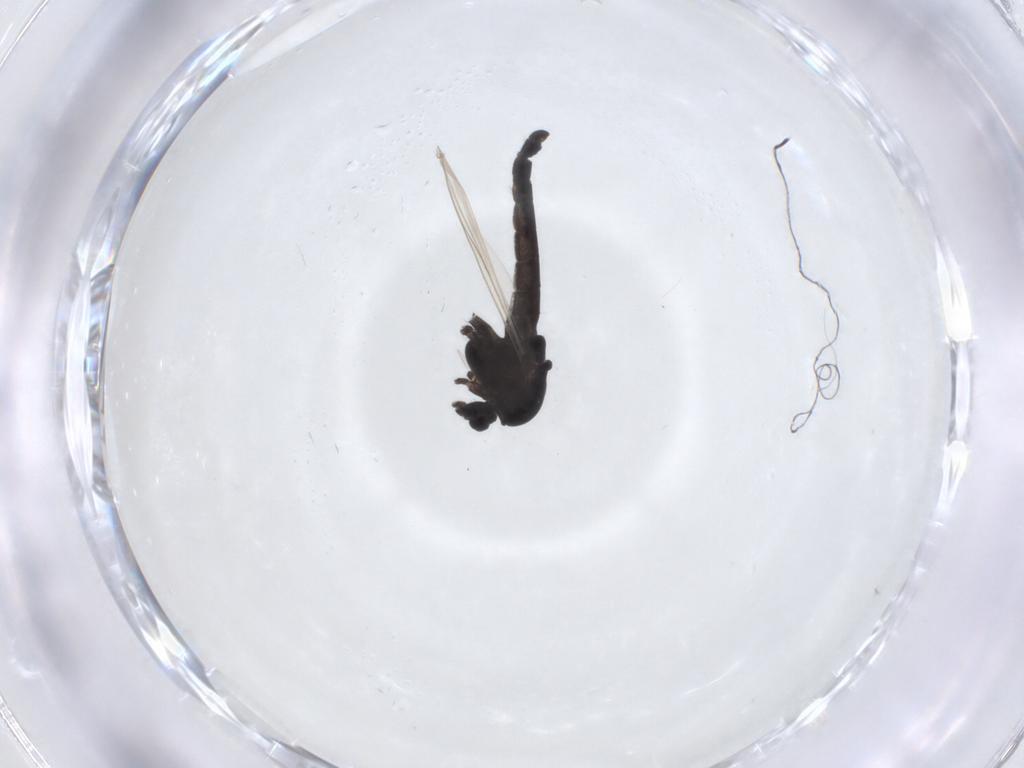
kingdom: Animalia
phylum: Arthropoda
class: Insecta
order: Diptera
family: Chironomidae
